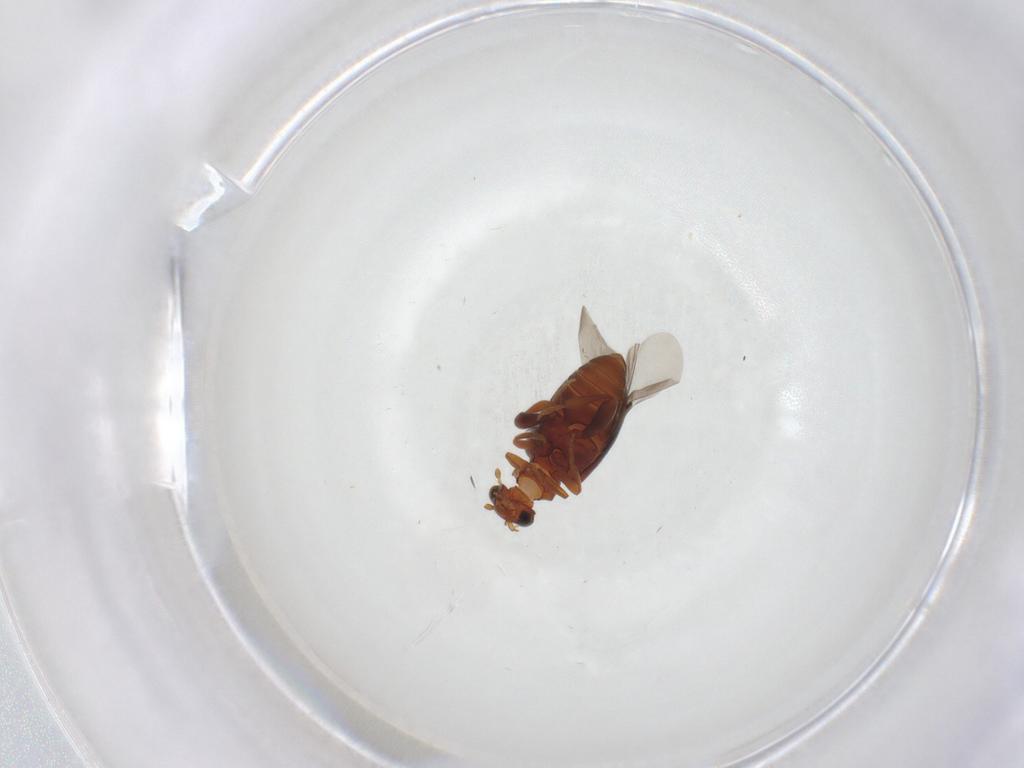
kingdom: Animalia
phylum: Arthropoda
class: Insecta
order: Coleoptera
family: Aderidae
